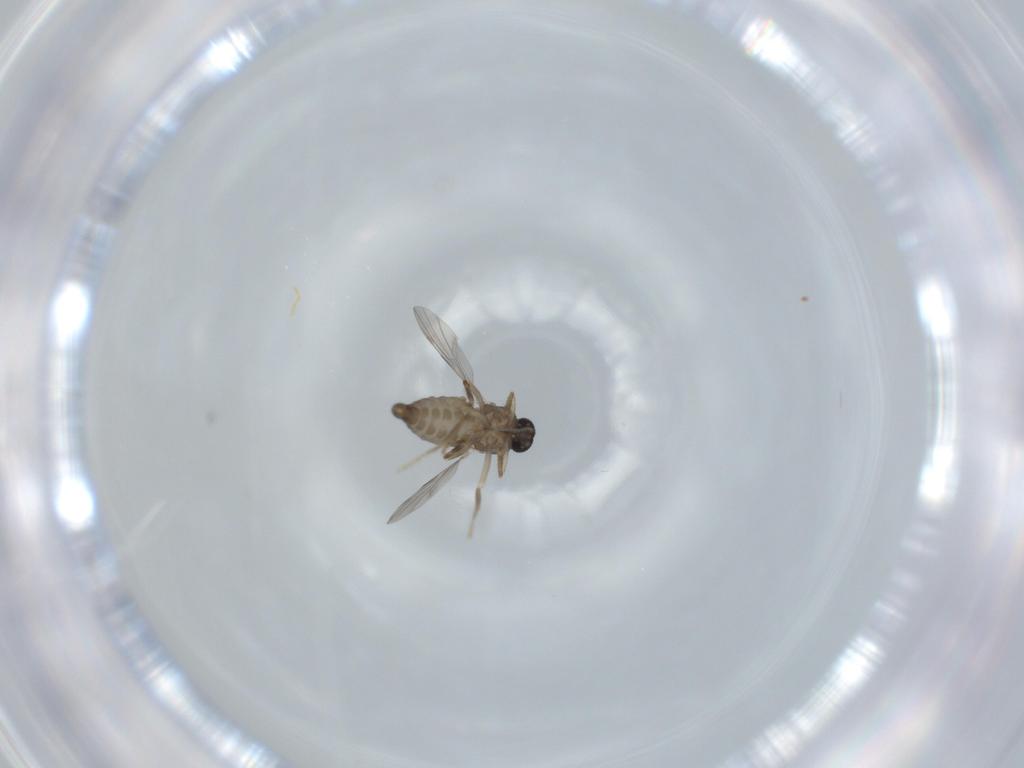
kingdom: Animalia
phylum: Arthropoda
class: Insecta
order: Diptera
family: Ceratopogonidae
